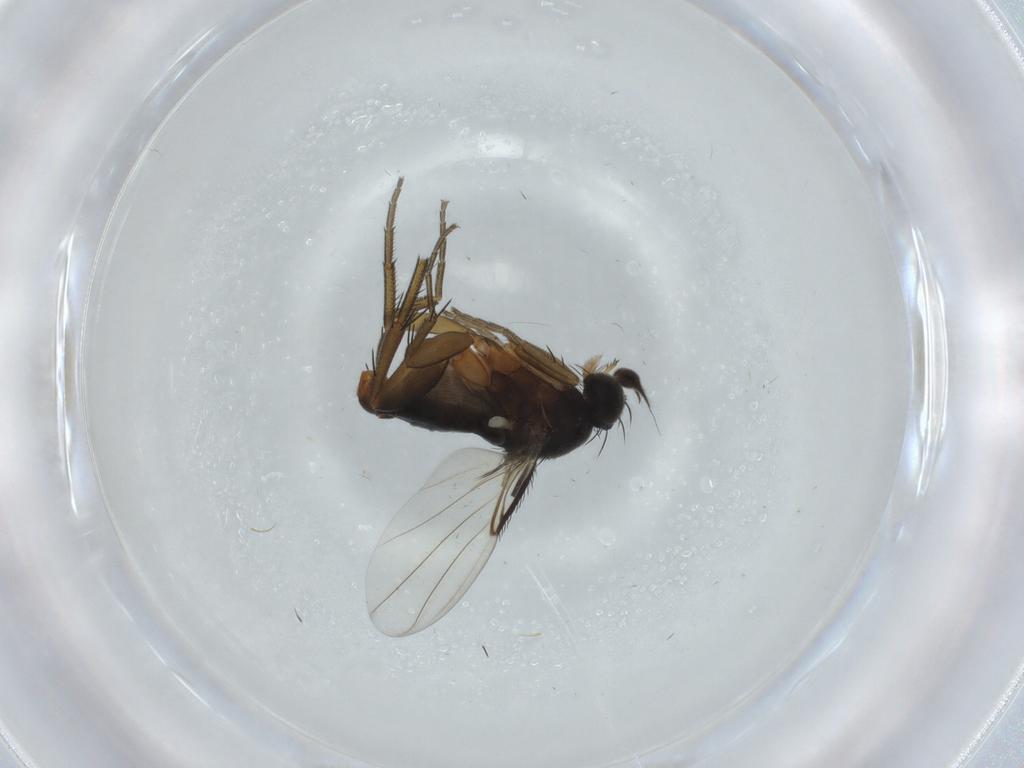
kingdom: Animalia
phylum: Arthropoda
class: Insecta
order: Diptera
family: Phoridae
